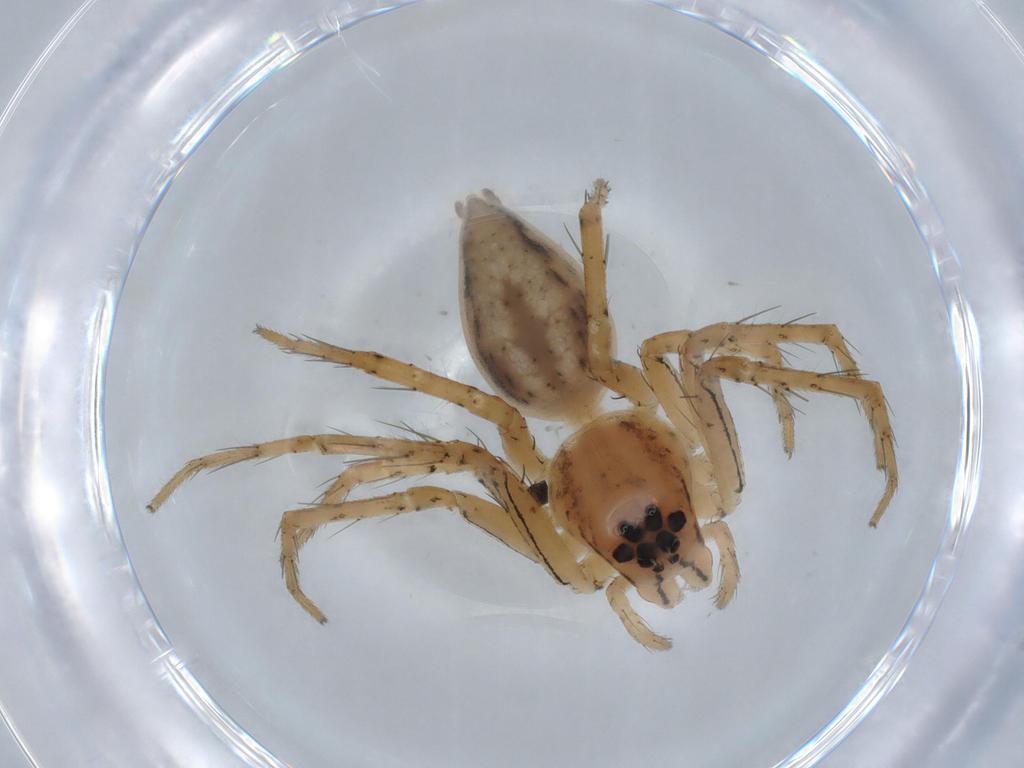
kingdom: Animalia
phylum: Arthropoda
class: Arachnida
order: Araneae
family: Oxyopidae
